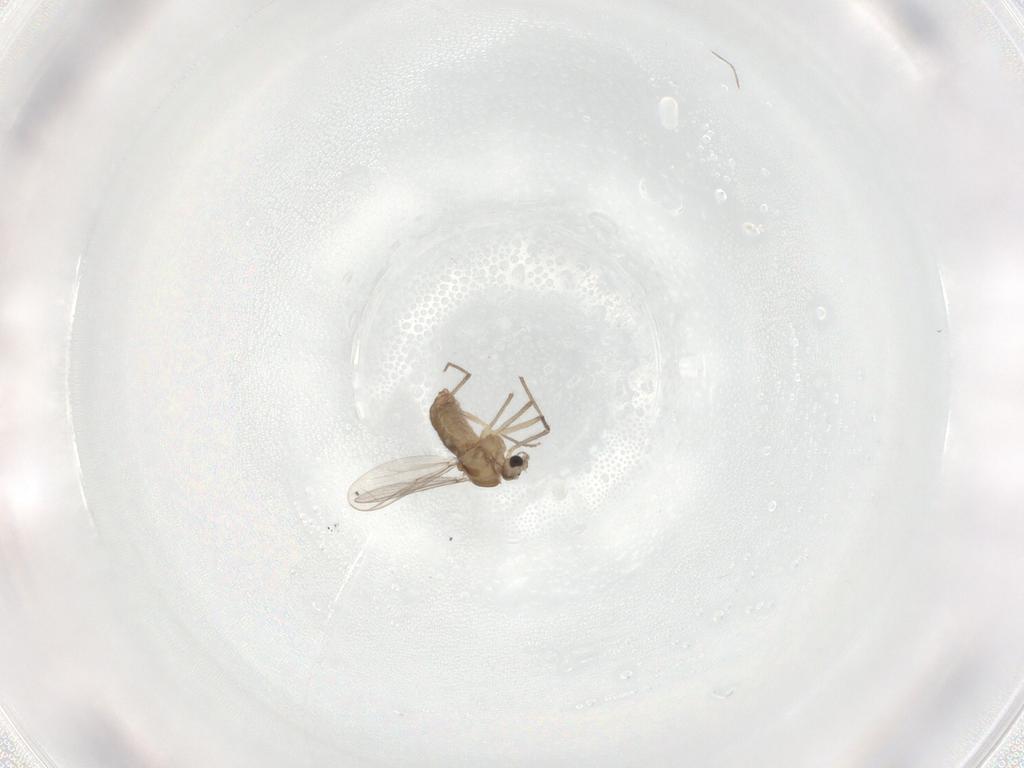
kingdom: Animalia
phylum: Arthropoda
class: Insecta
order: Diptera
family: Chironomidae
